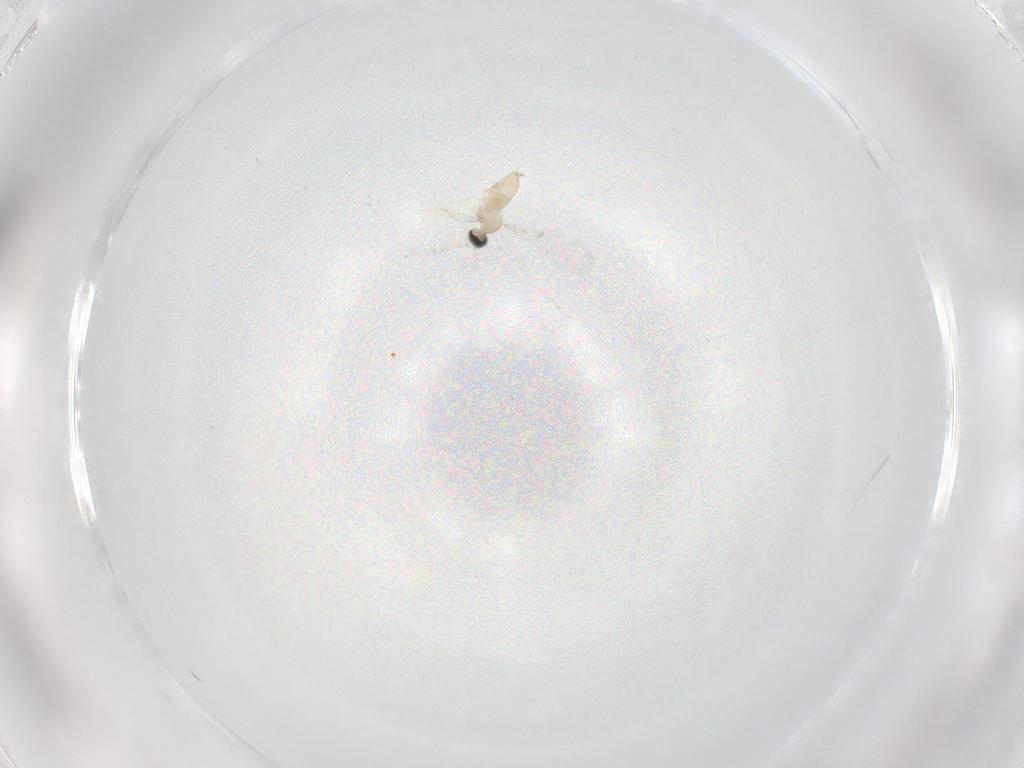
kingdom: Animalia
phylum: Arthropoda
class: Insecta
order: Diptera
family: Cecidomyiidae
